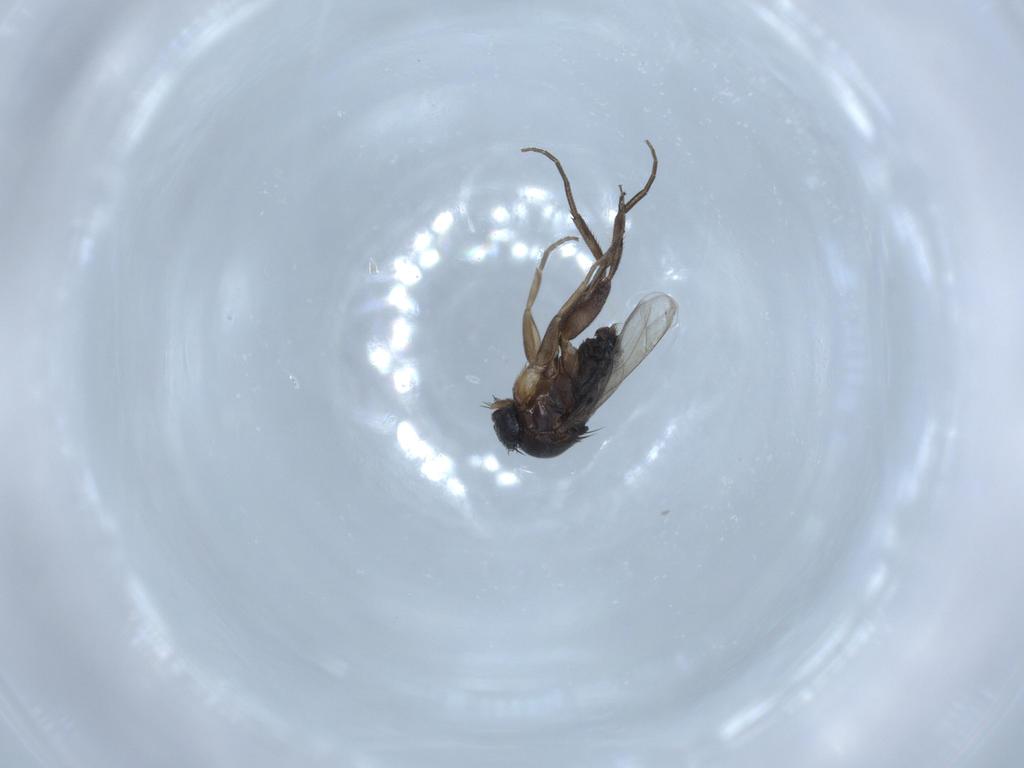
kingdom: Animalia
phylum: Arthropoda
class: Insecta
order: Diptera
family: Phoridae
